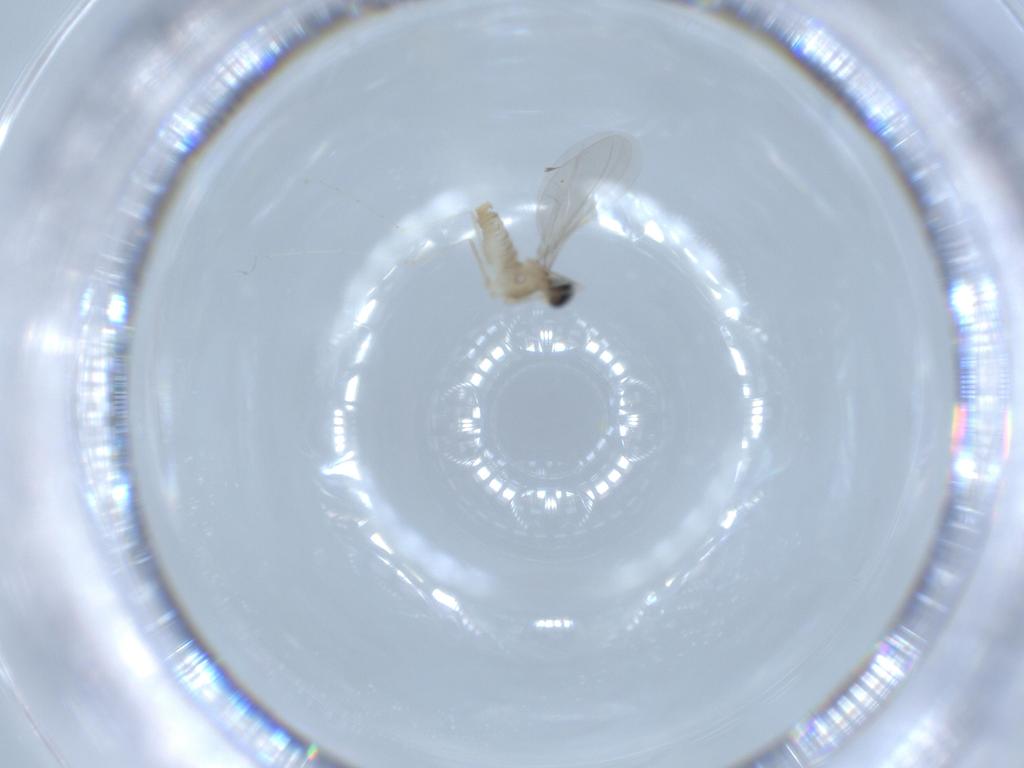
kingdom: Animalia
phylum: Arthropoda
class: Insecta
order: Diptera
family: Cecidomyiidae
